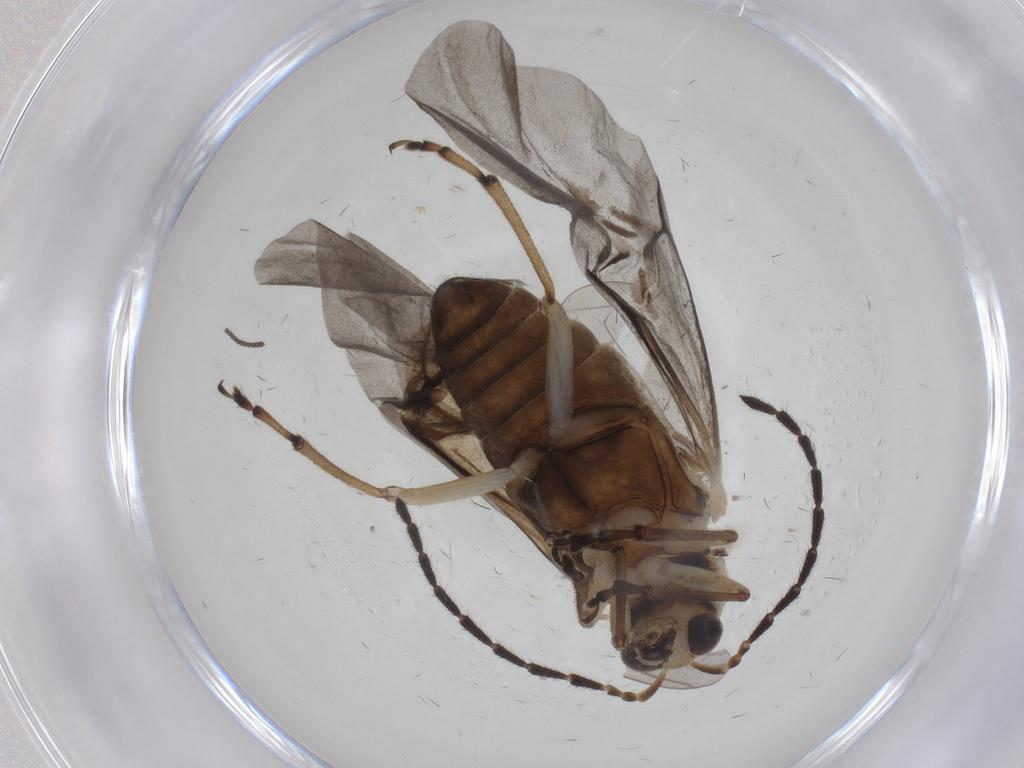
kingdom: Animalia
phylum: Arthropoda
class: Insecta
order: Coleoptera
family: Chrysomelidae
